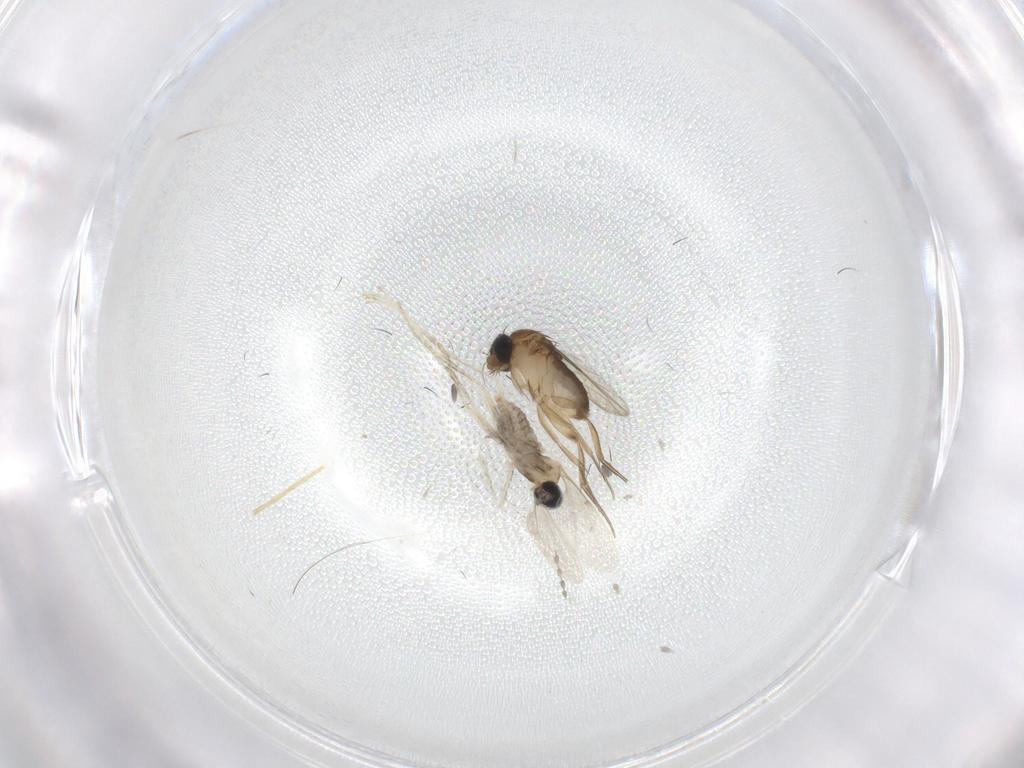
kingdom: Animalia
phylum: Arthropoda
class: Insecta
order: Diptera
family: Cecidomyiidae
